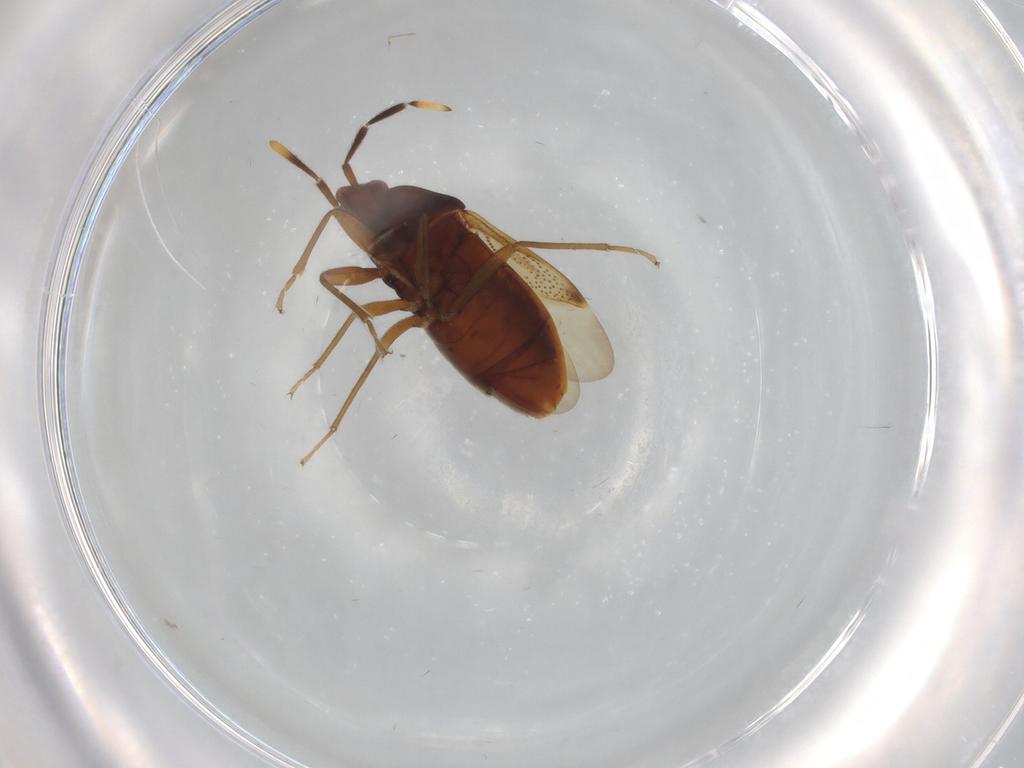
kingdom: Animalia
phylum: Arthropoda
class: Insecta
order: Hemiptera
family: Rhyparochromidae
